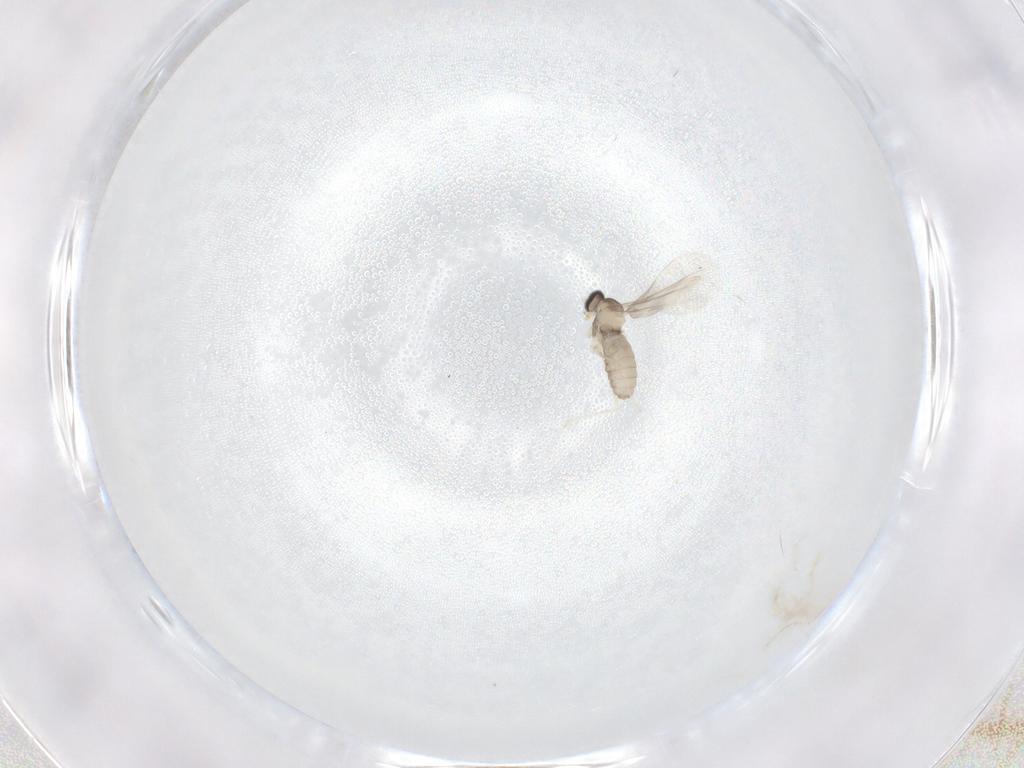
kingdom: Animalia
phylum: Arthropoda
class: Insecta
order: Diptera
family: Cecidomyiidae
